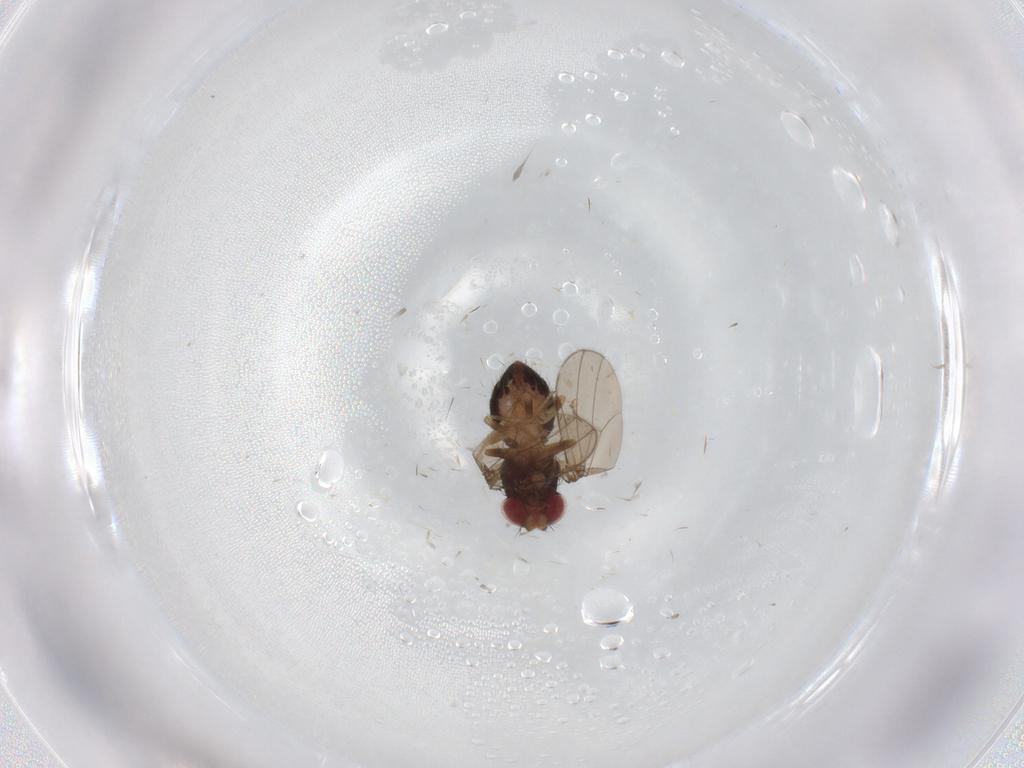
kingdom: Animalia
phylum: Arthropoda
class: Insecta
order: Diptera
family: Drosophilidae
